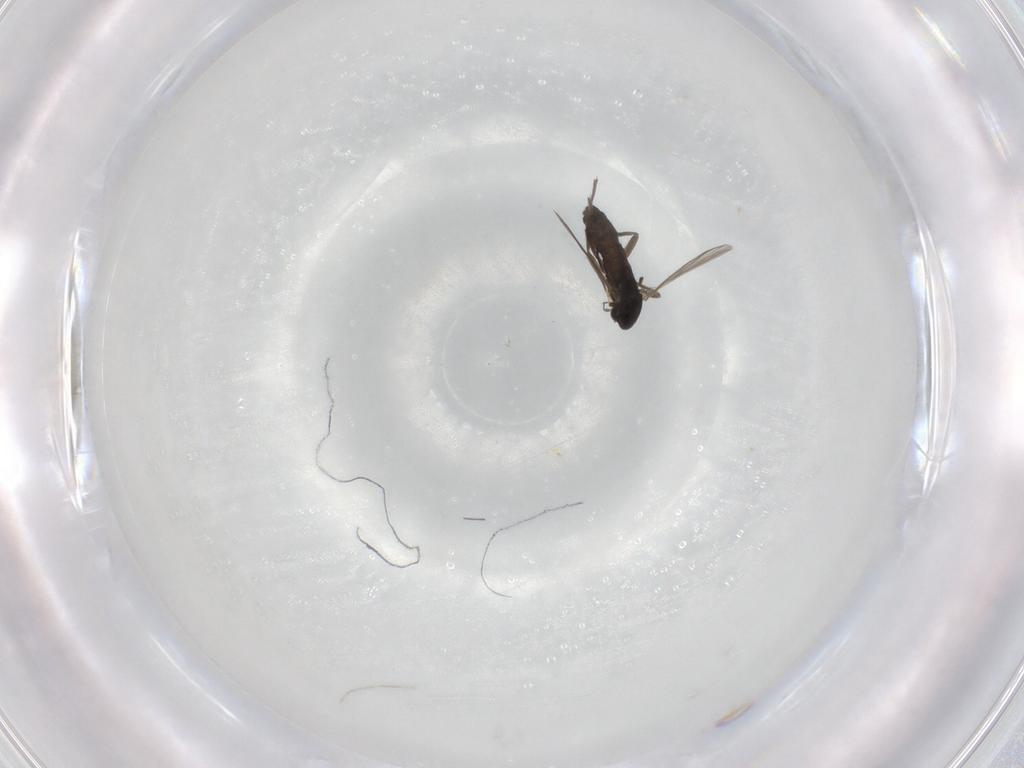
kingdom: Animalia
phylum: Arthropoda
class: Insecta
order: Diptera
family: Chironomidae
